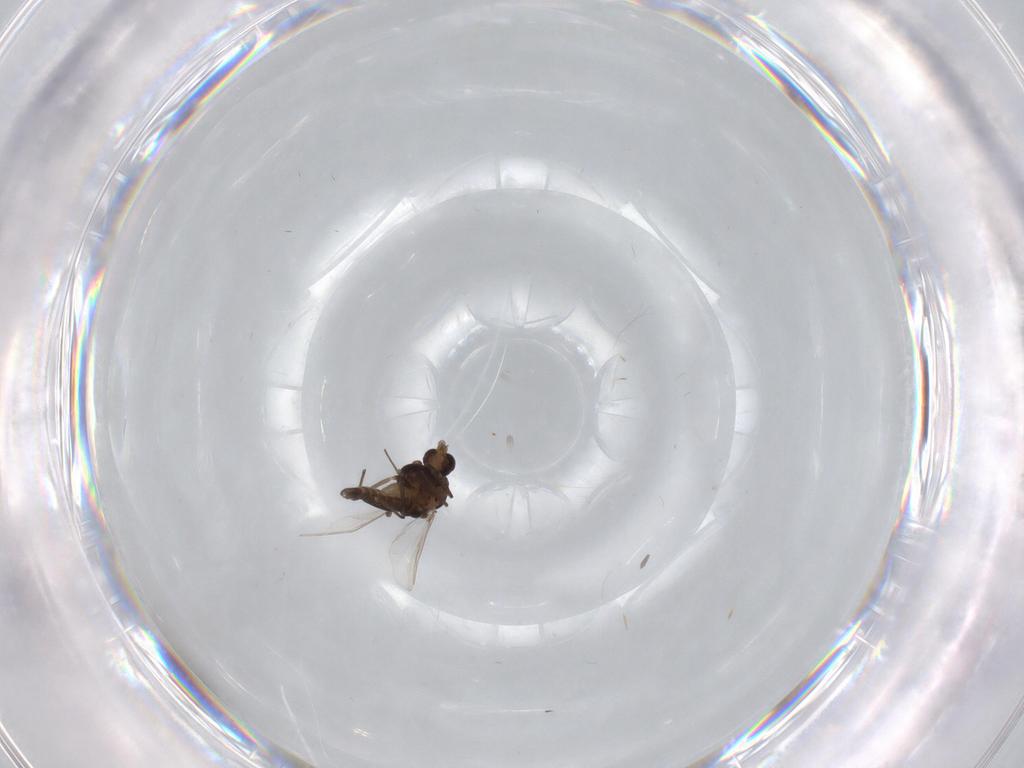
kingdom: Animalia
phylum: Arthropoda
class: Insecta
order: Diptera
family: Chironomidae
